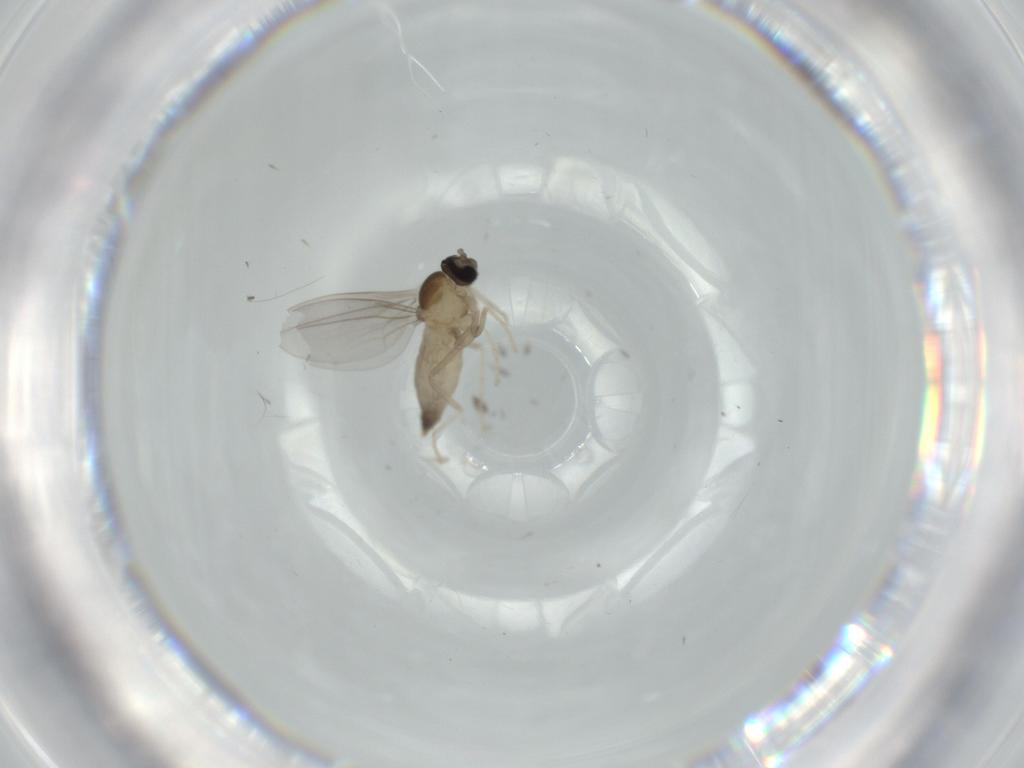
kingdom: Animalia
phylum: Arthropoda
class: Insecta
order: Diptera
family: Cecidomyiidae
